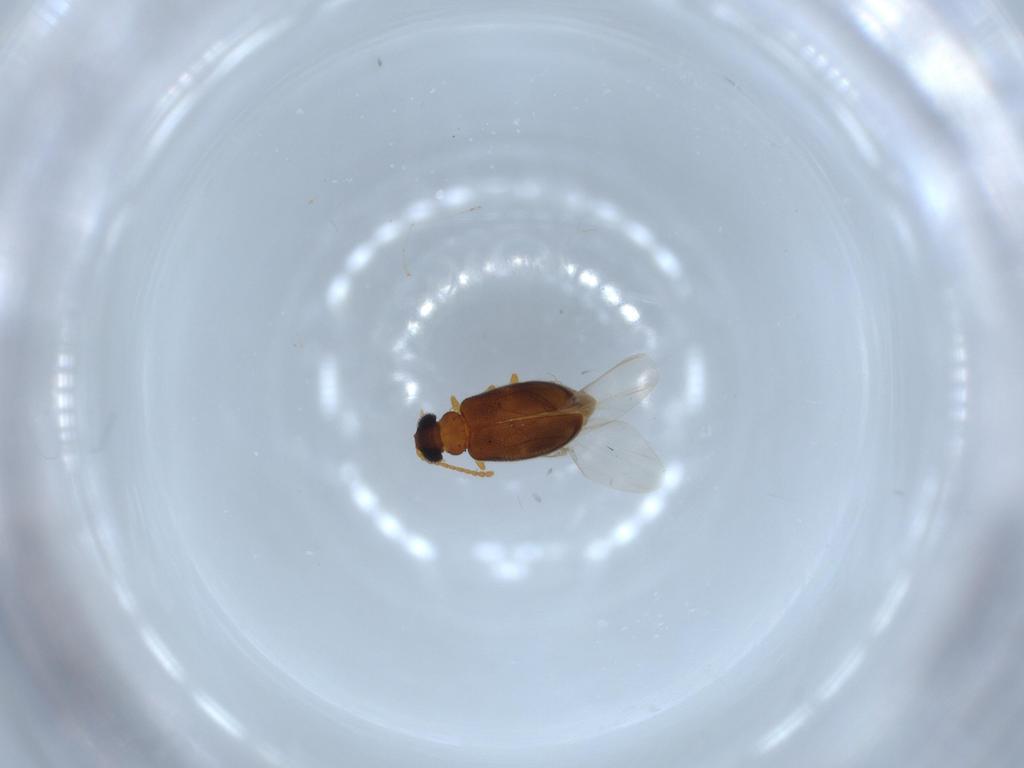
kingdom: Animalia
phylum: Arthropoda
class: Insecta
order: Coleoptera
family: Aderidae
